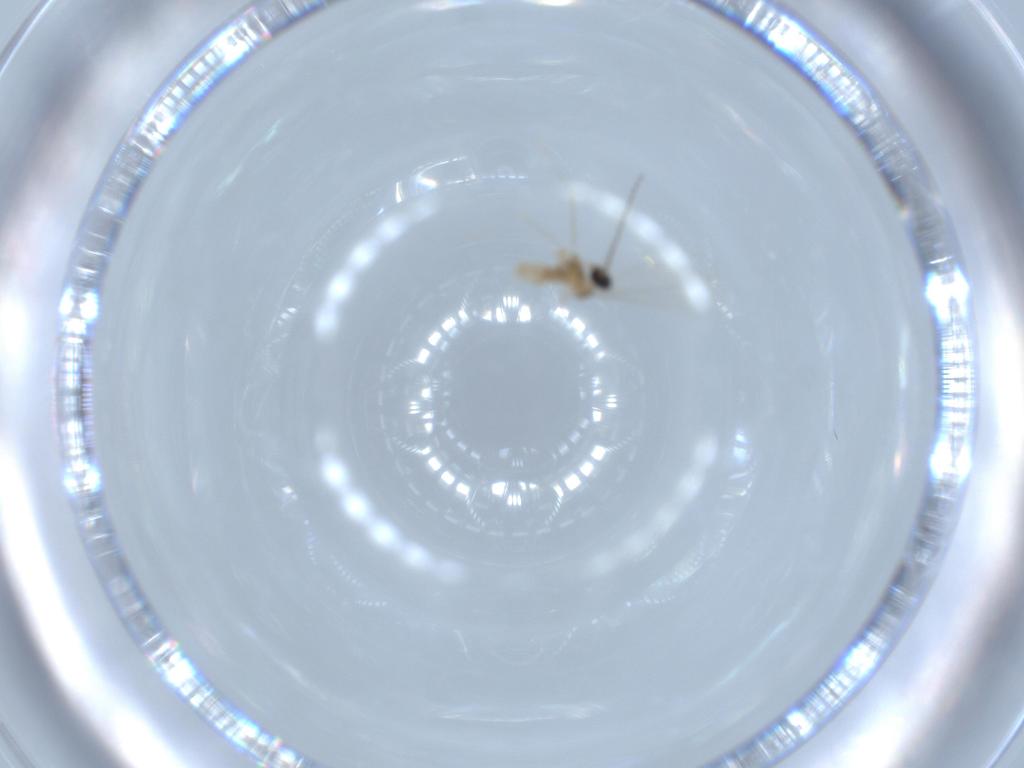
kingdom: Animalia
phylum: Arthropoda
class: Insecta
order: Diptera
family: Cecidomyiidae
